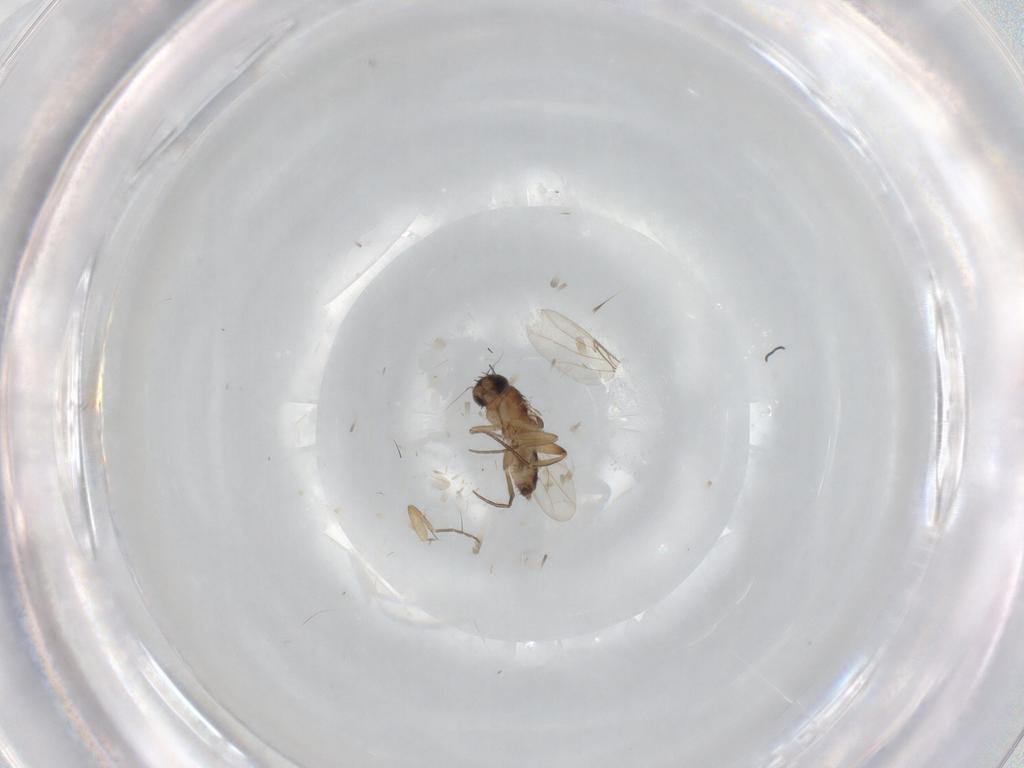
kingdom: Animalia
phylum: Arthropoda
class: Insecta
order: Diptera
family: Phoridae
